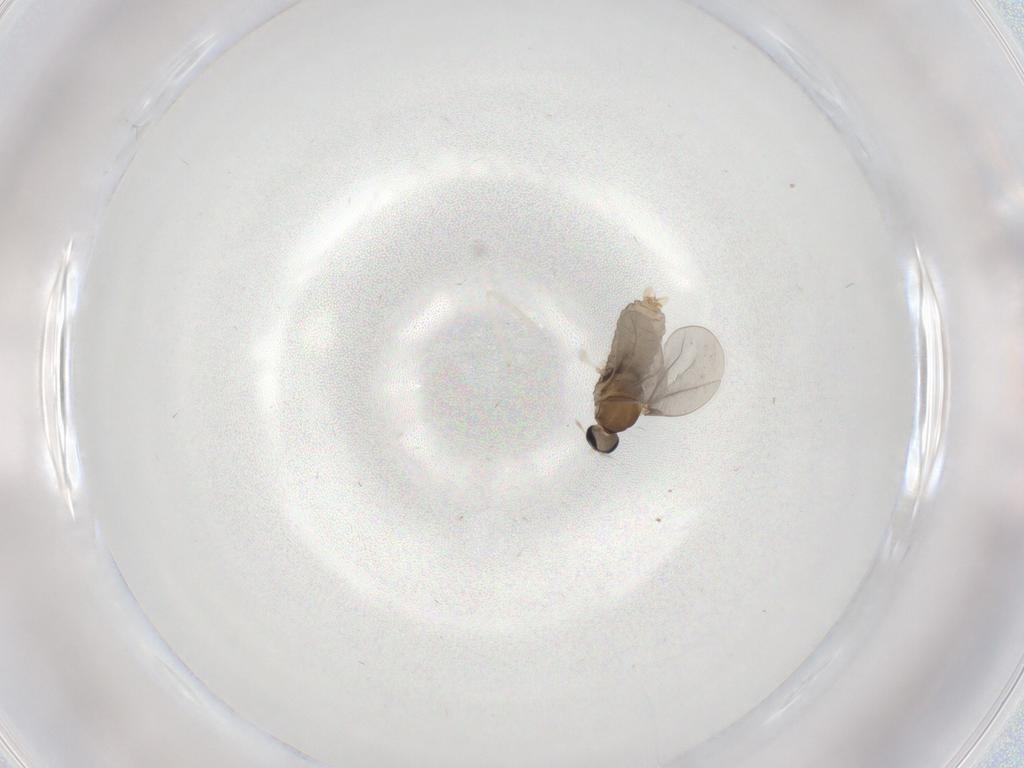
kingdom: Animalia
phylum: Arthropoda
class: Insecta
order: Diptera
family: Cecidomyiidae
